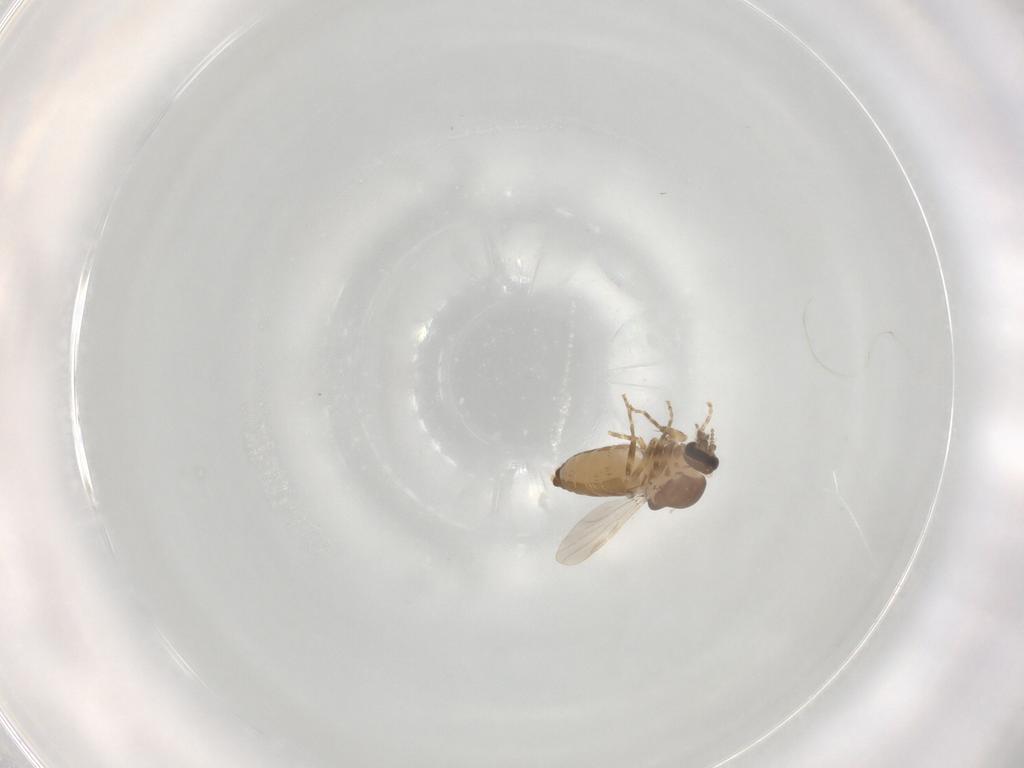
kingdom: Animalia
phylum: Arthropoda
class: Insecta
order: Diptera
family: Ceratopogonidae
